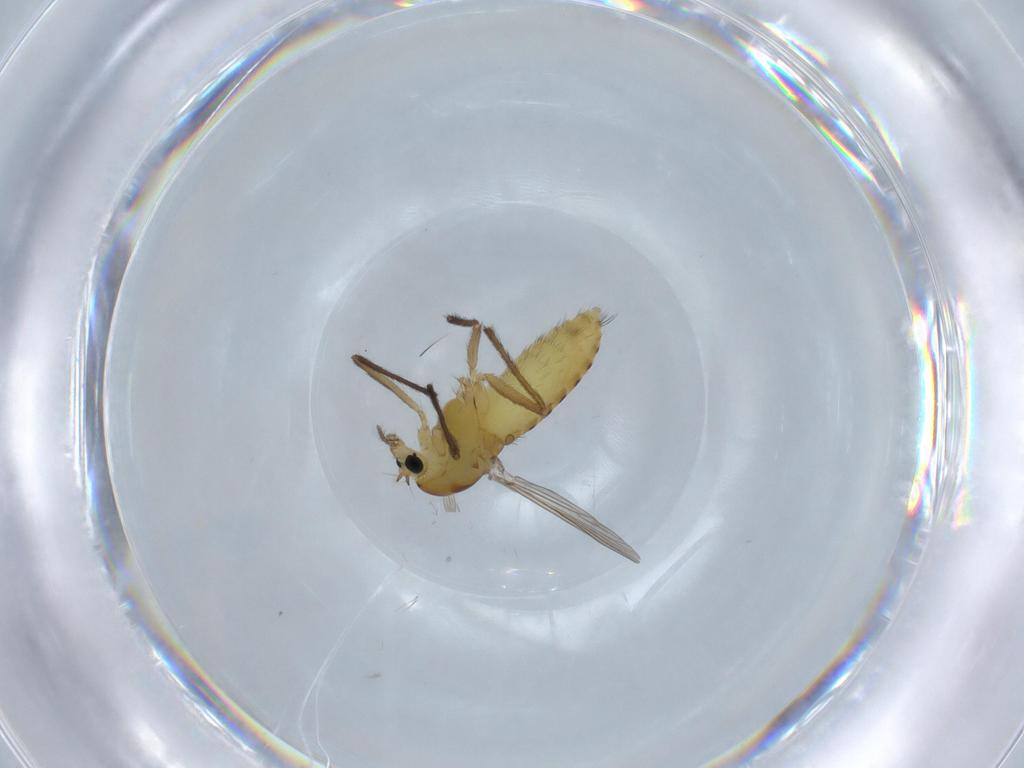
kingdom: Animalia
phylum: Arthropoda
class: Insecta
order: Diptera
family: Chironomidae
